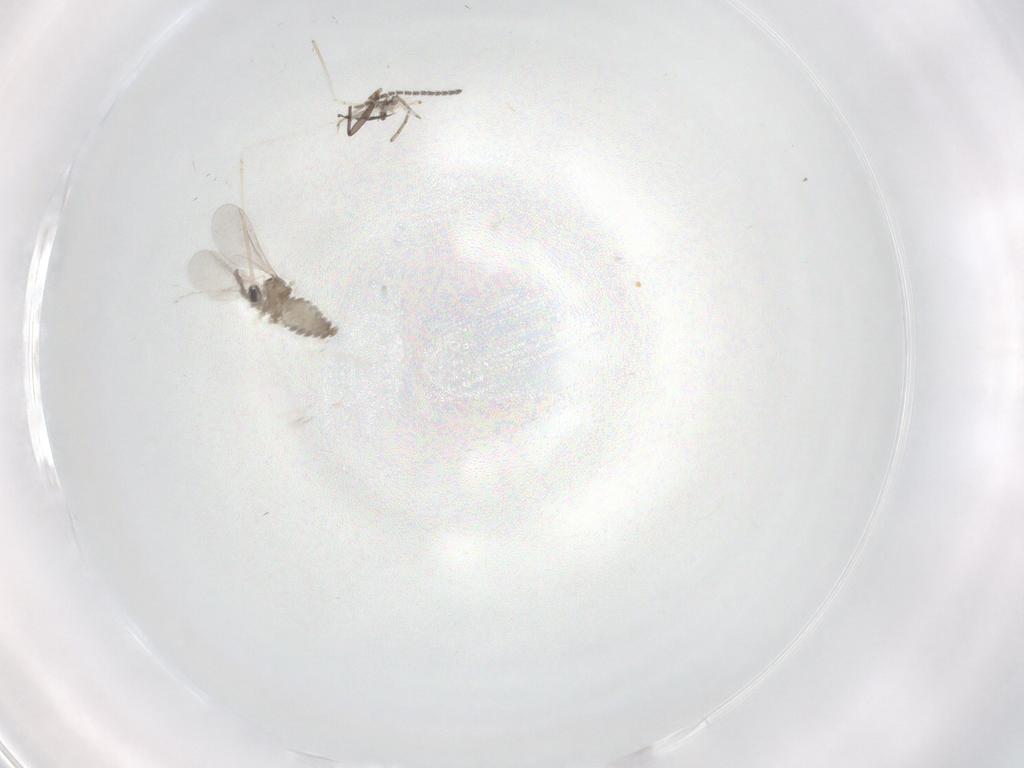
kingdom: Animalia
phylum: Arthropoda
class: Insecta
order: Diptera
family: Sciaridae
